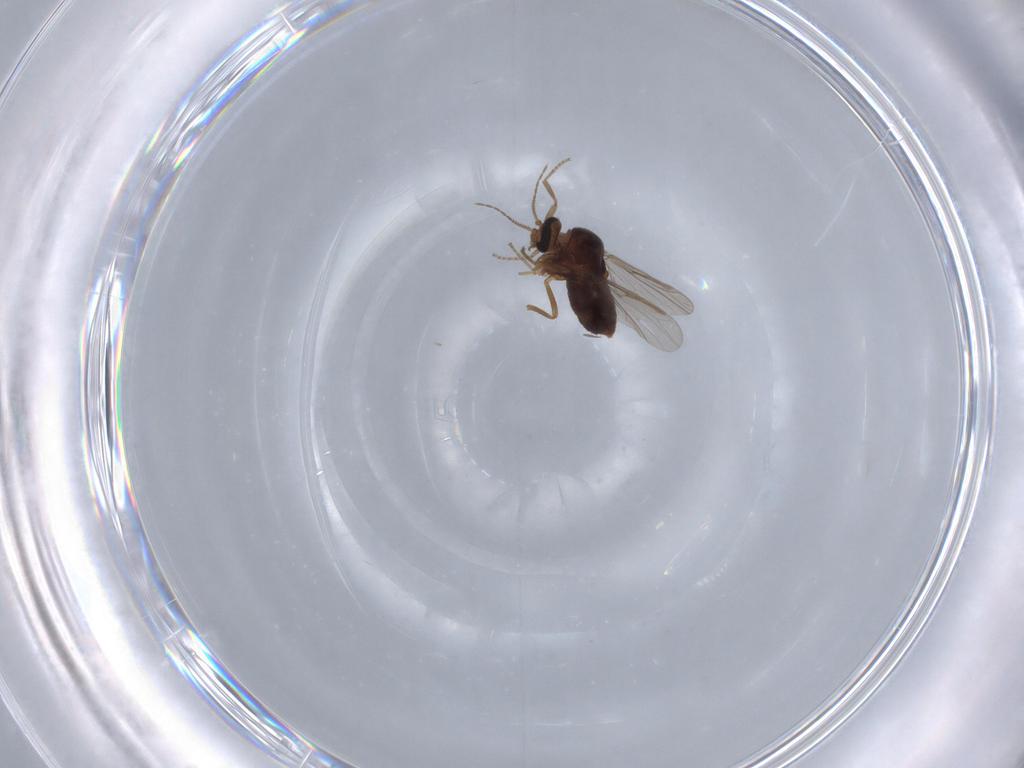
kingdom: Animalia
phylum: Arthropoda
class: Insecta
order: Diptera
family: Ceratopogonidae
